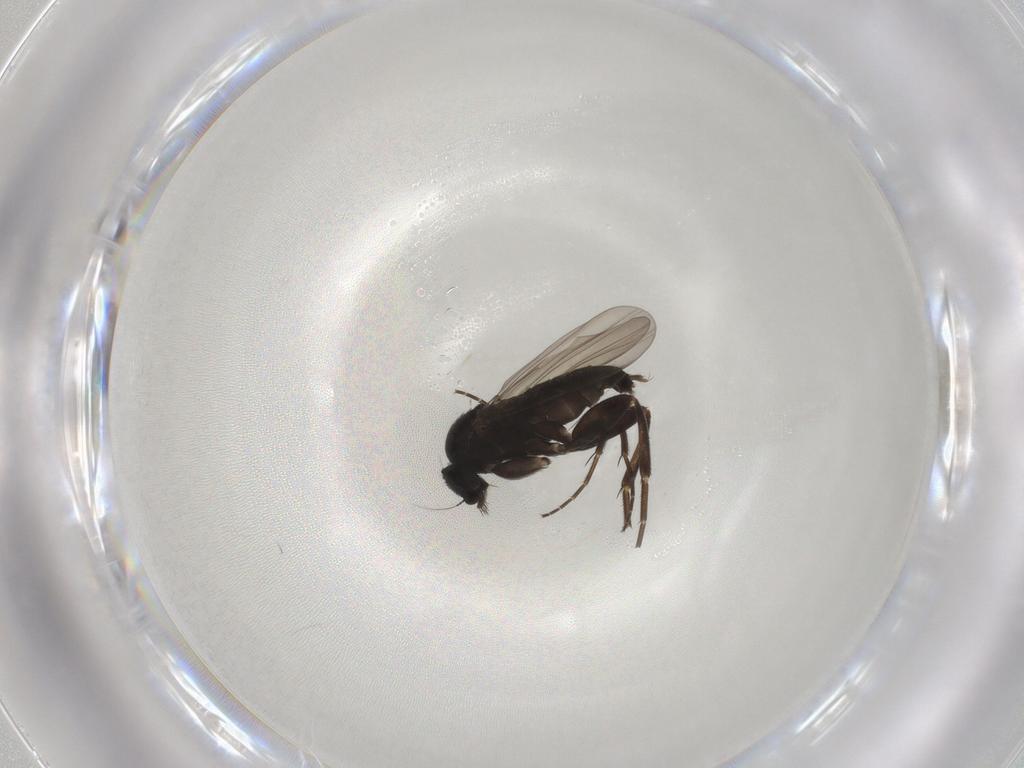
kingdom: Animalia
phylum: Arthropoda
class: Insecta
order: Diptera
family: Phoridae
